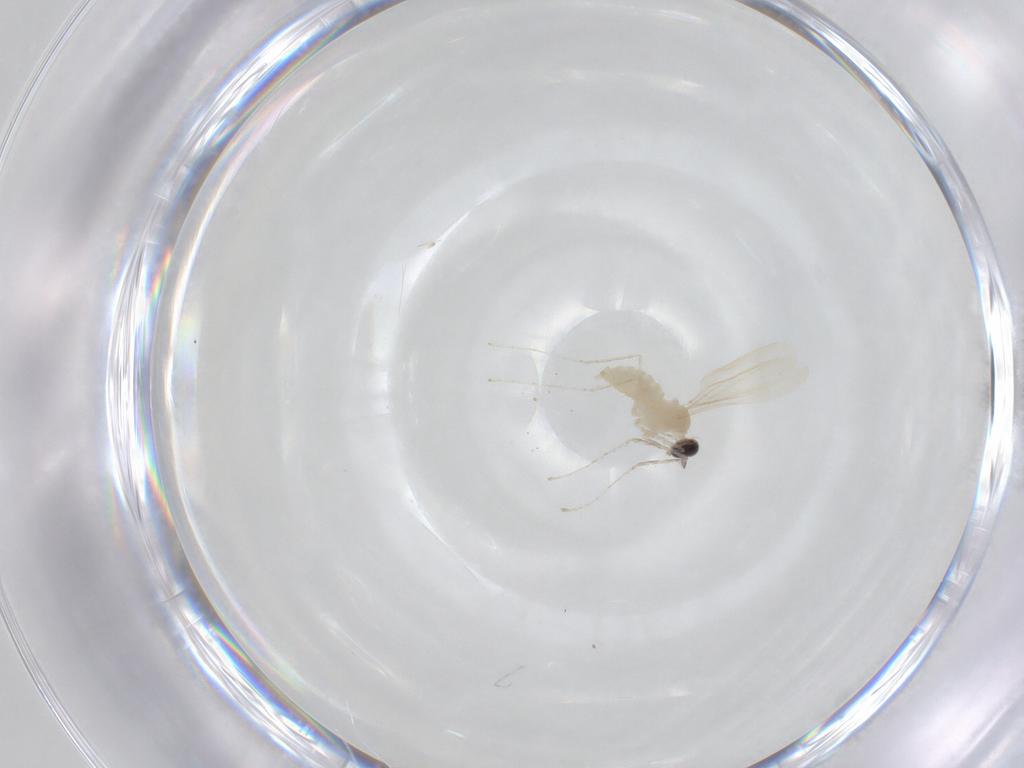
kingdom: Animalia
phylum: Arthropoda
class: Insecta
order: Diptera
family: Cecidomyiidae
